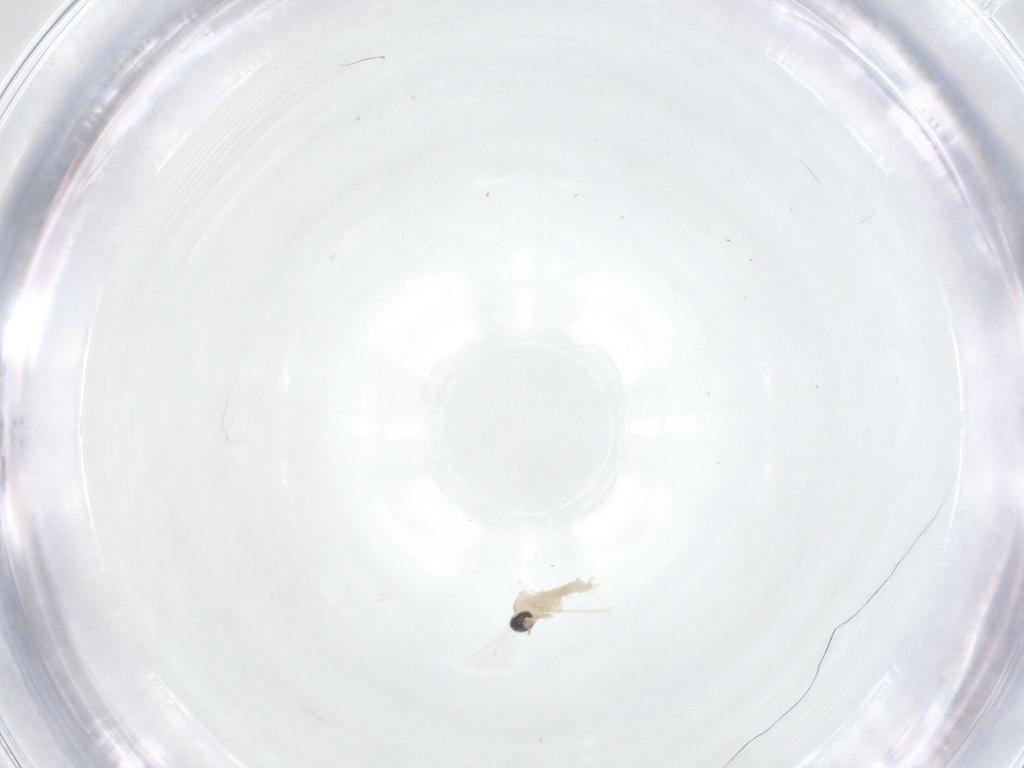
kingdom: Animalia
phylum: Arthropoda
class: Insecta
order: Diptera
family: Cecidomyiidae
